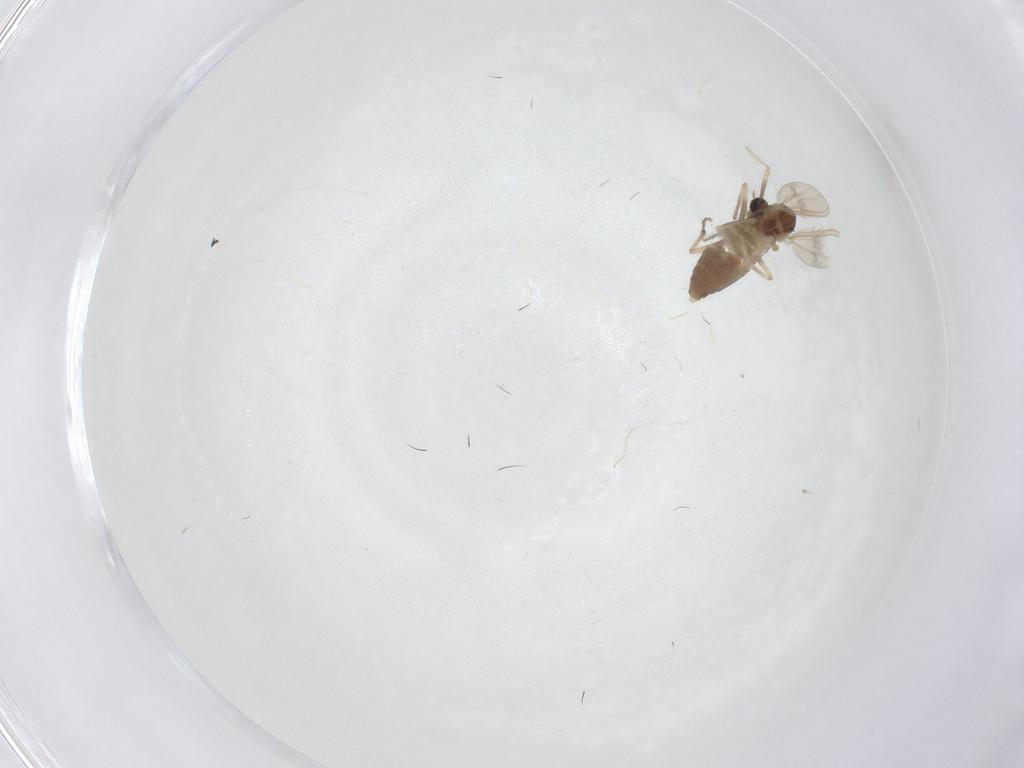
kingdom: Animalia
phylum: Arthropoda
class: Insecta
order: Diptera
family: Chironomidae
